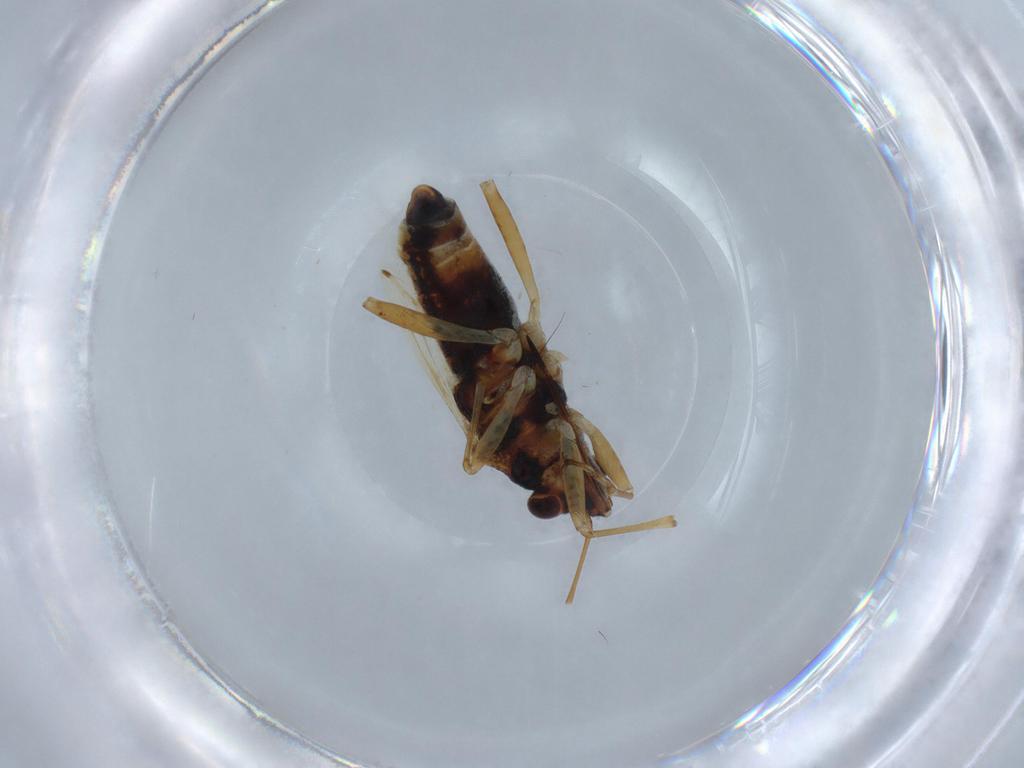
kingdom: Animalia
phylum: Arthropoda
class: Insecta
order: Hemiptera
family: Lygaeidae
